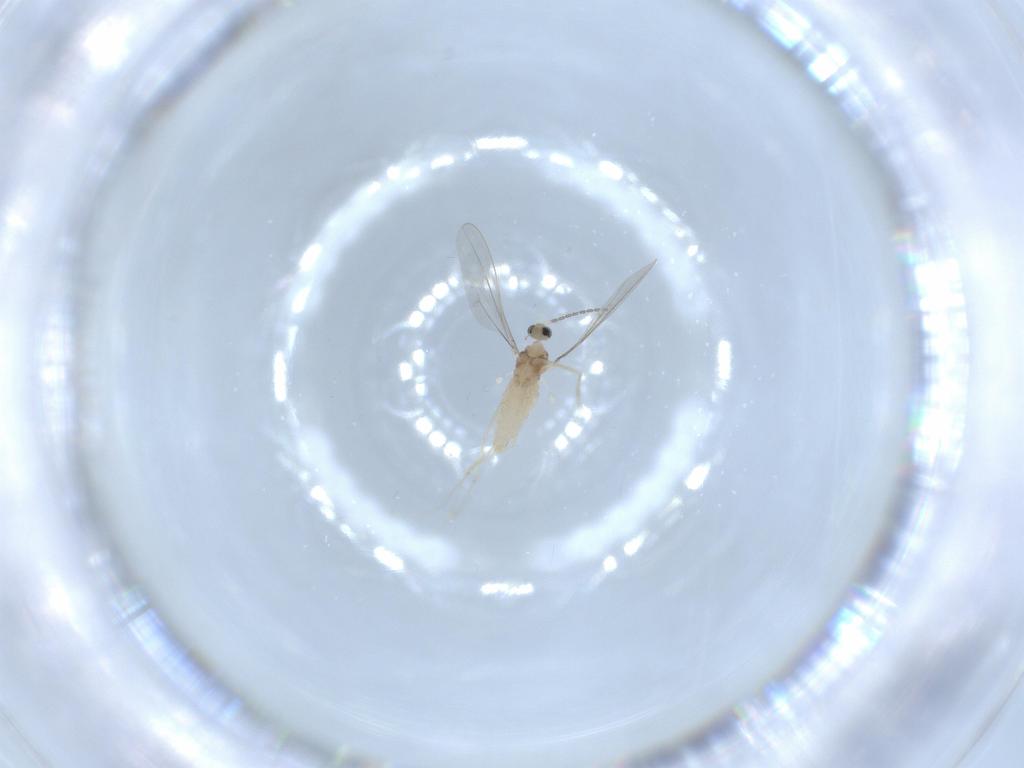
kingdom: Animalia
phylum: Arthropoda
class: Insecta
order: Diptera
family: Cecidomyiidae
